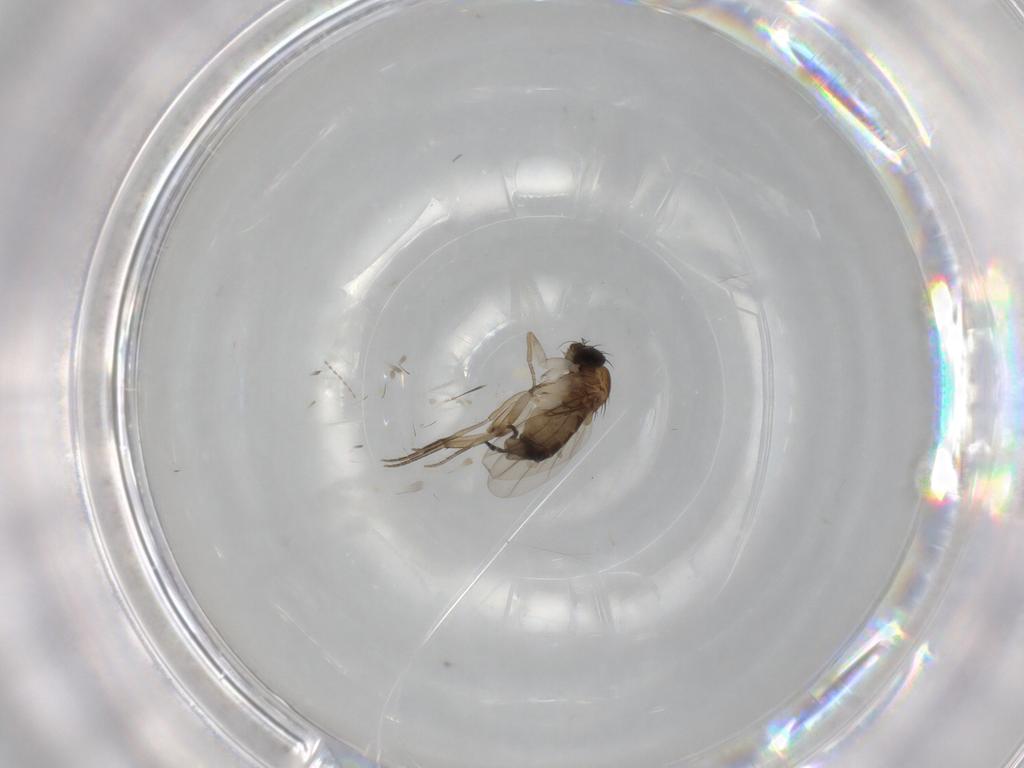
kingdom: Animalia
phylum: Arthropoda
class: Insecta
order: Diptera
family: Phoridae
